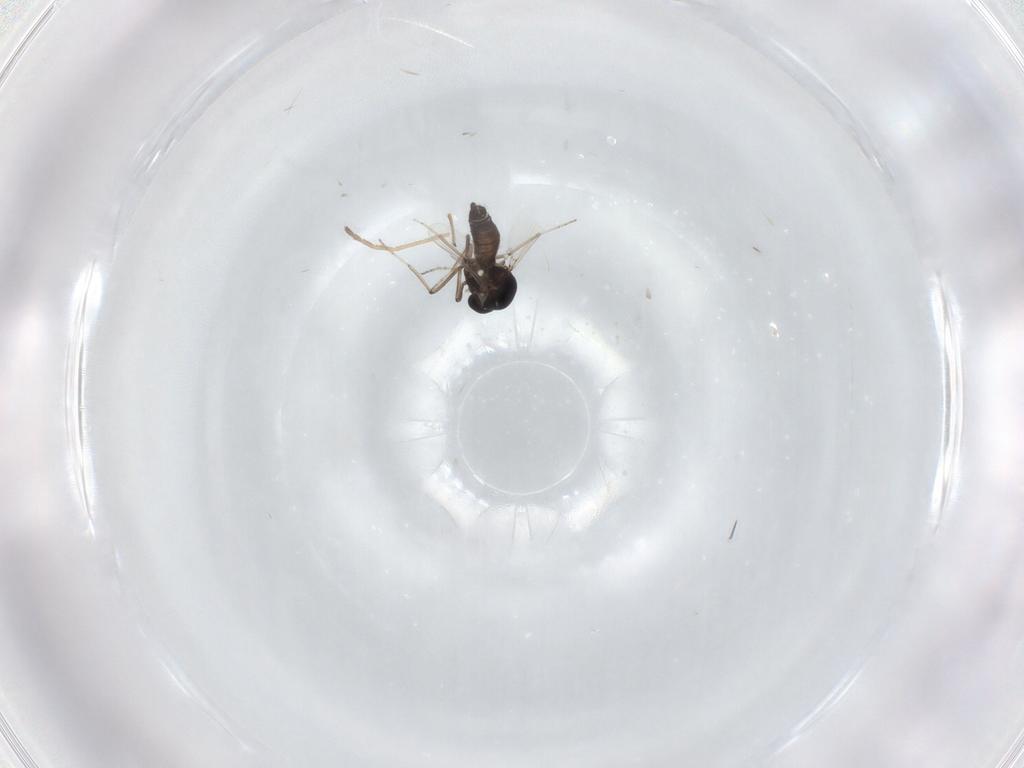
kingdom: Animalia
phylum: Arthropoda
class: Insecta
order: Diptera
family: Ceratopogonidae
